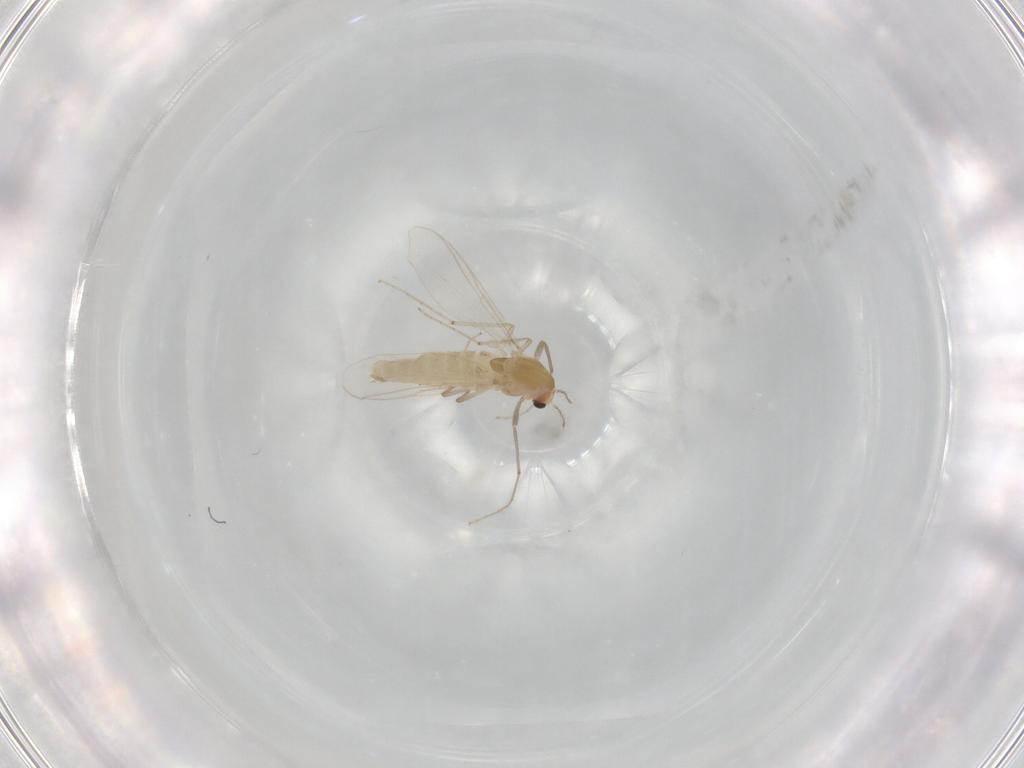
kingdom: Animalia
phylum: Arthropoda
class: Insecta
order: Diptera
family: Chironomidae
